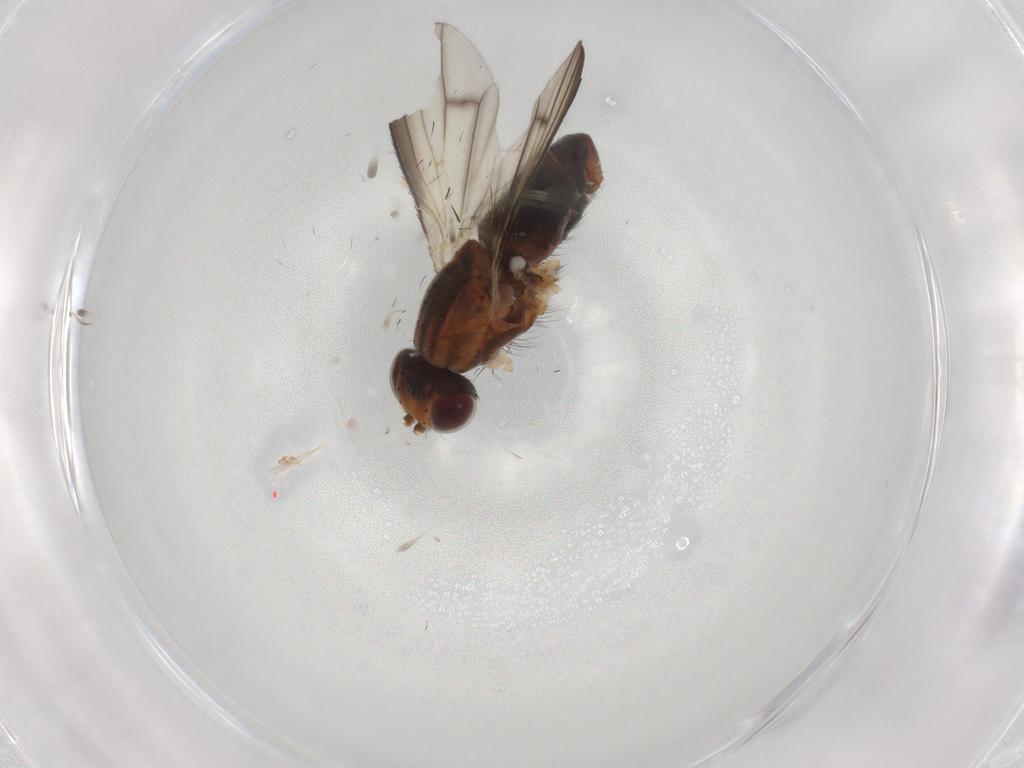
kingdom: Animalia
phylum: Arthropoda
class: Insecta
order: Diptera
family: Heleomyzidae
